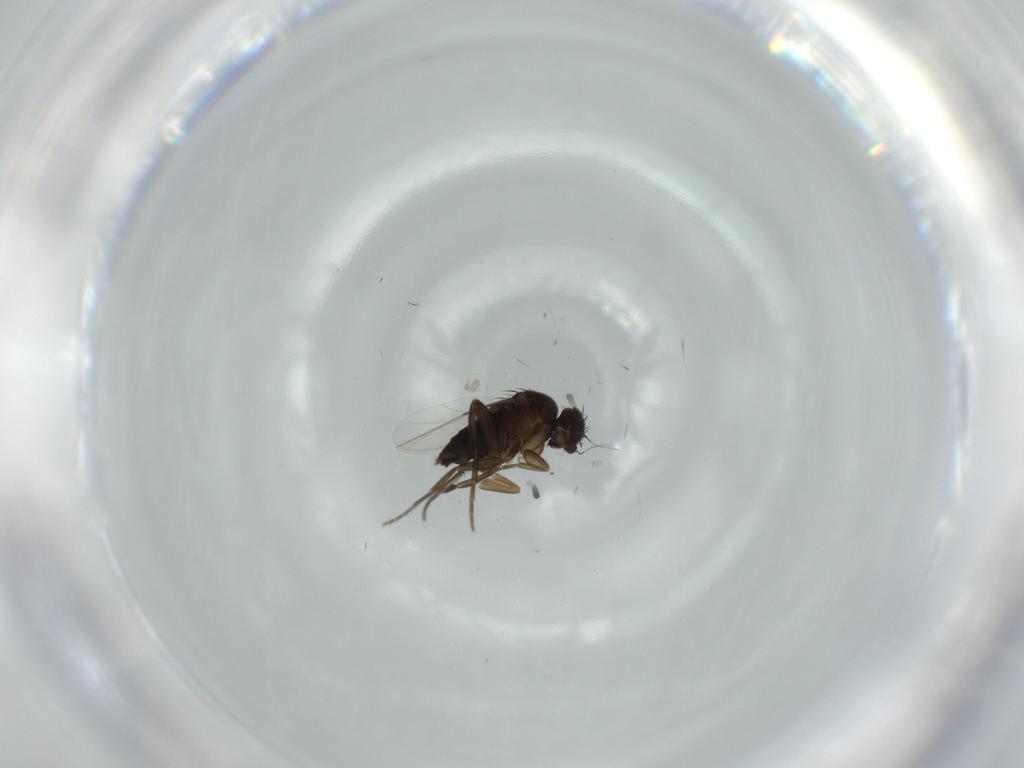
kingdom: Animalia
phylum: Arthropoda
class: Insecta
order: Diptera
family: Phoridae
